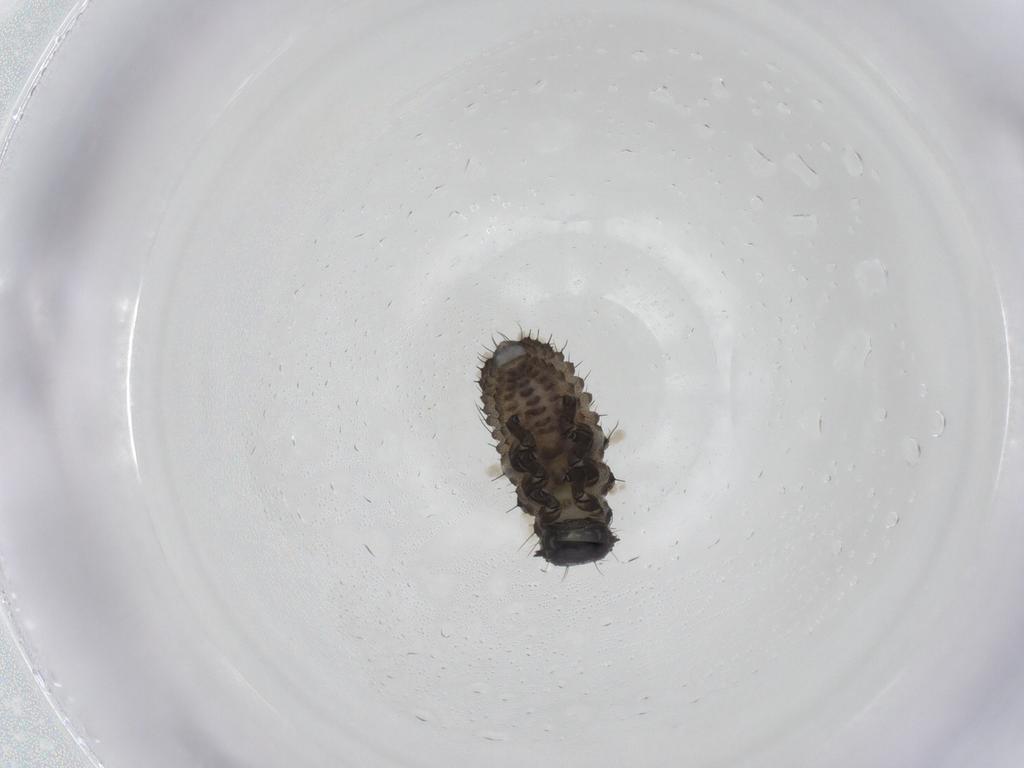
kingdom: Animalia
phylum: Arthropoda
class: Insecta
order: Coleoptera
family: Chrysomelidae
